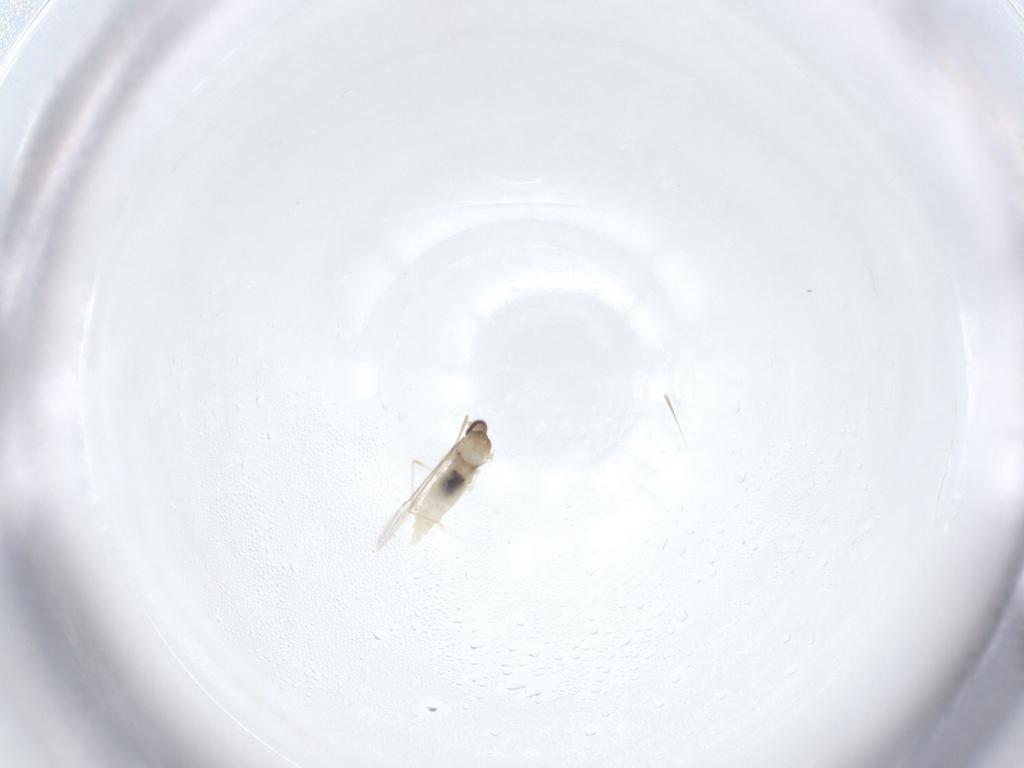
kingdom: Animalia
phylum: Arthropoda
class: Insecta
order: Diptera
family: Cecidomyiidae
